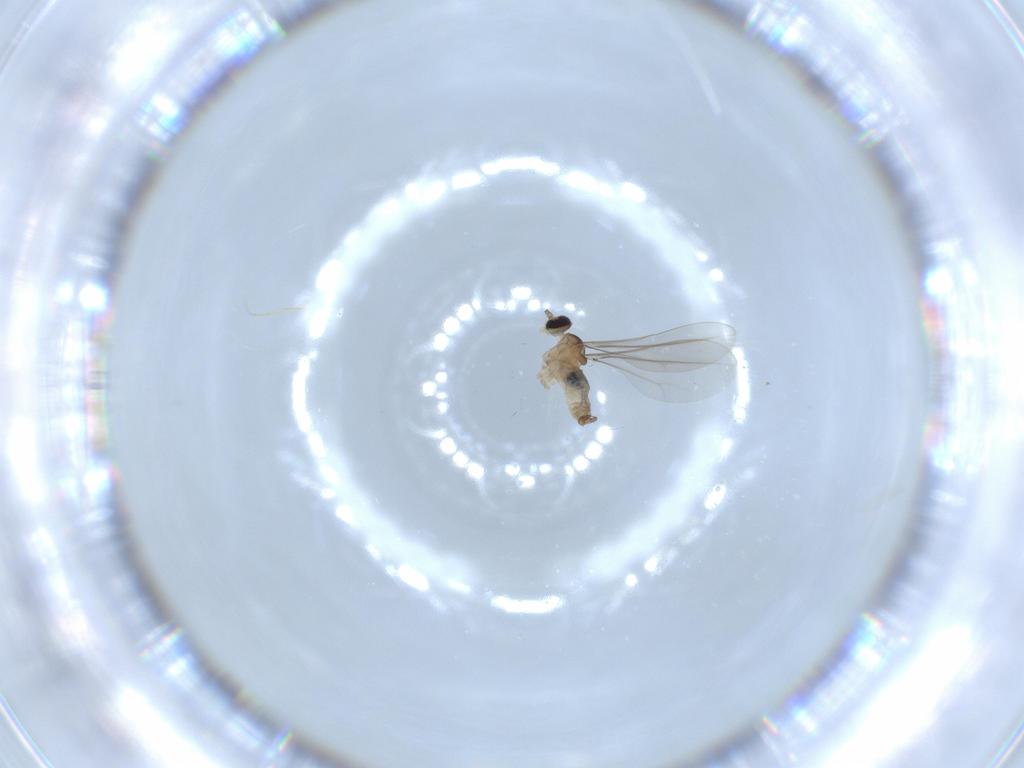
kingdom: Animalia
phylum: Arthropoda
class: Insecta
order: Diptera
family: Cecidomyiidae
